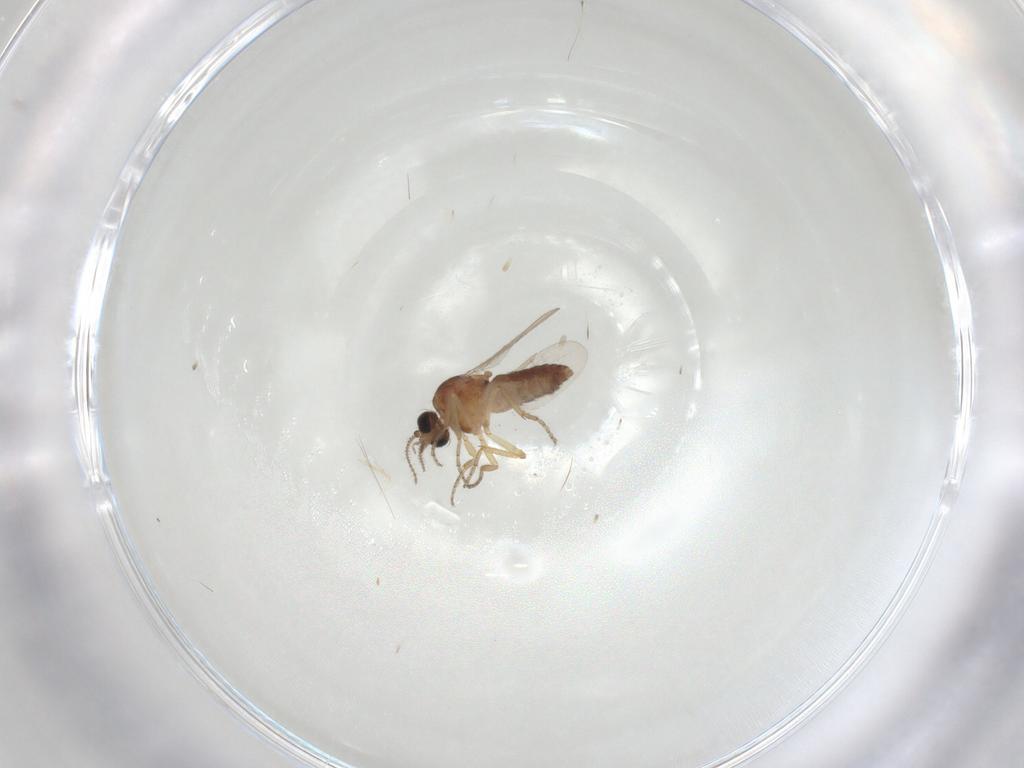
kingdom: Animalia
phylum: Arthropoda
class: Insecta
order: Diptera
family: Ceratopogonidae
